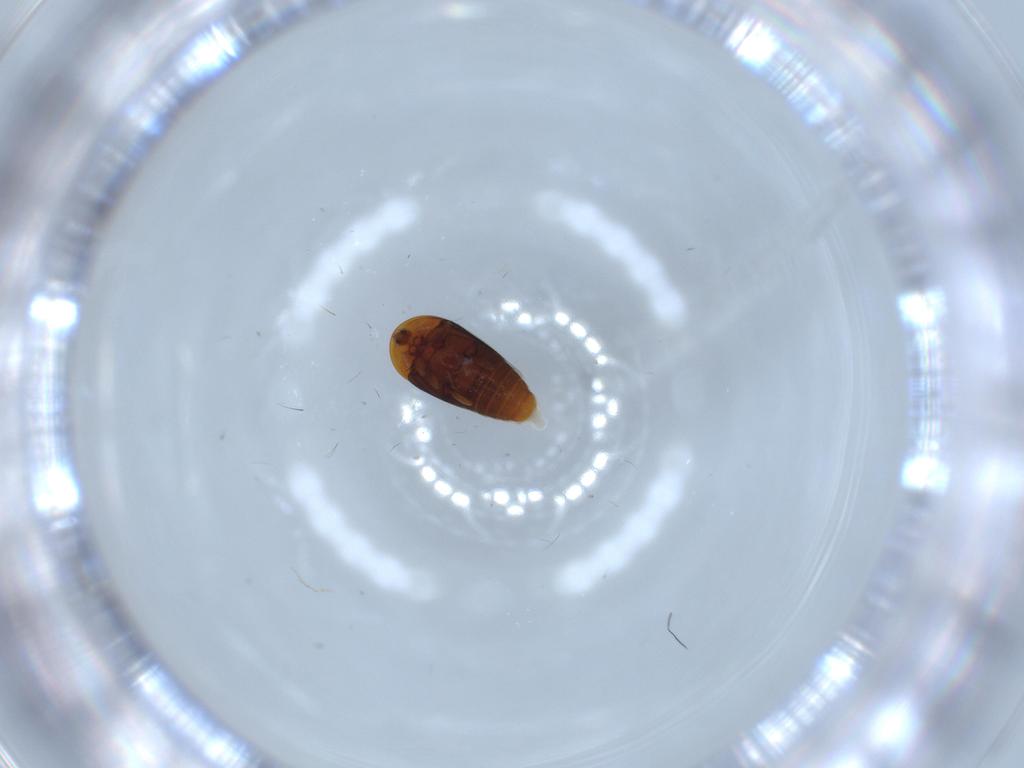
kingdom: Animalia
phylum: Arthropoda
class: Insecta
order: Coleoptera
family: Corylophidae
